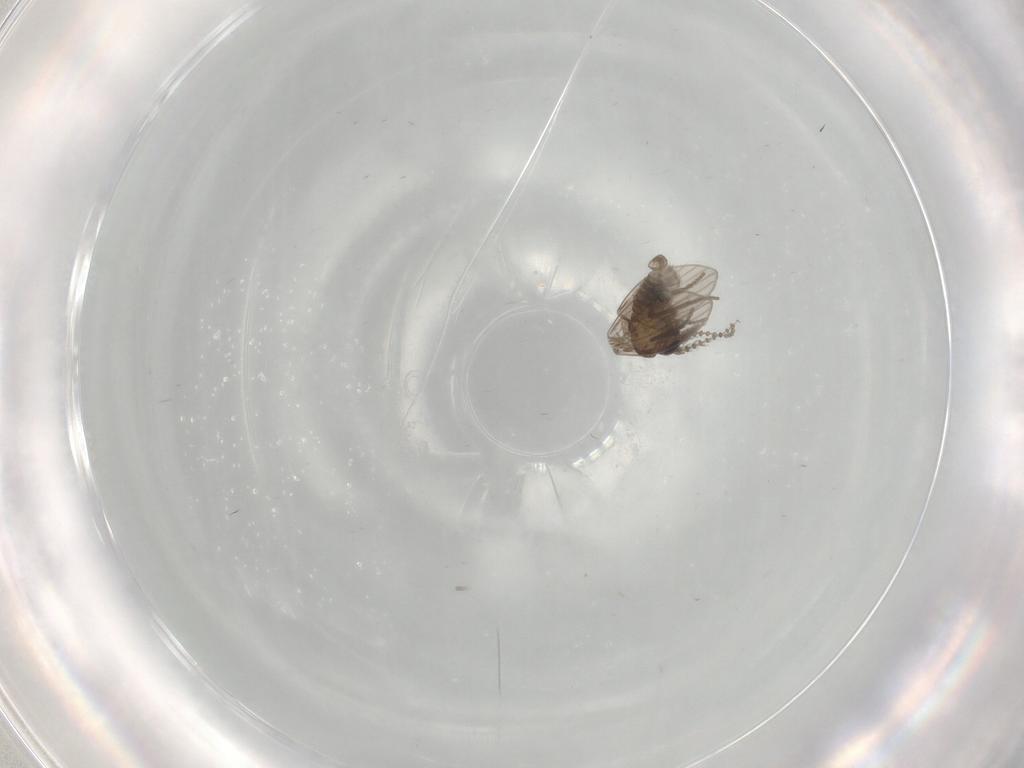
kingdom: Animalia
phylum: Arthropoda
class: Insecta
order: Diptera
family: Psychodidae
